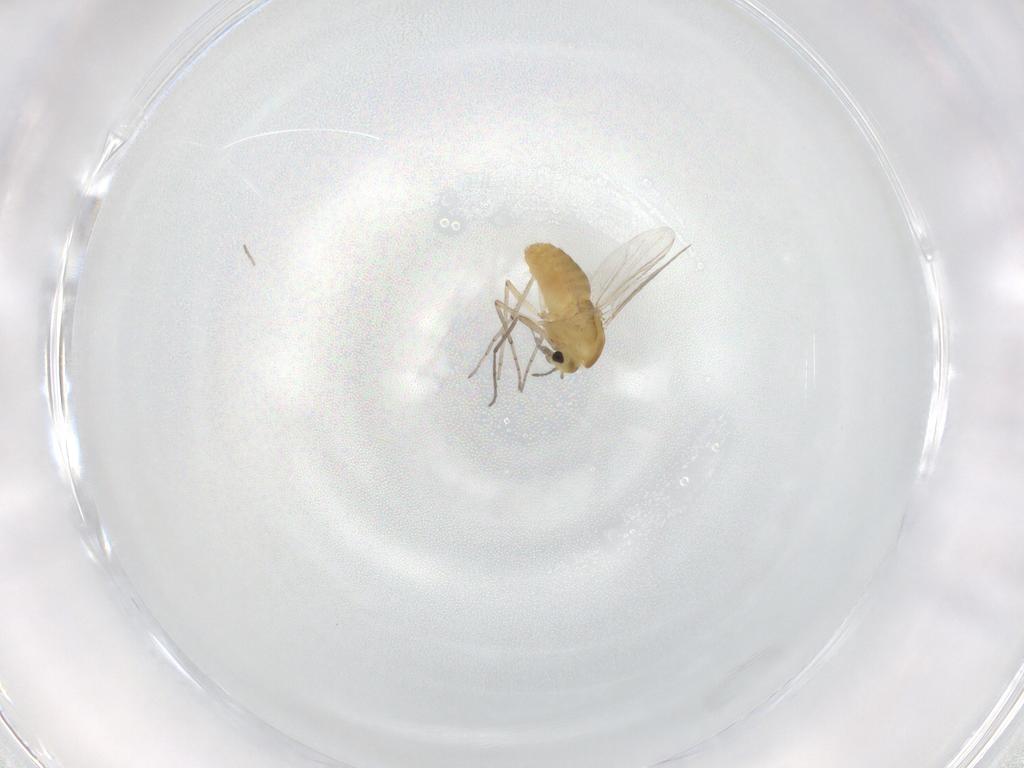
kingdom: Animalia
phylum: Arthropoda
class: Insecta
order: Diptera
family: Chironomidae
